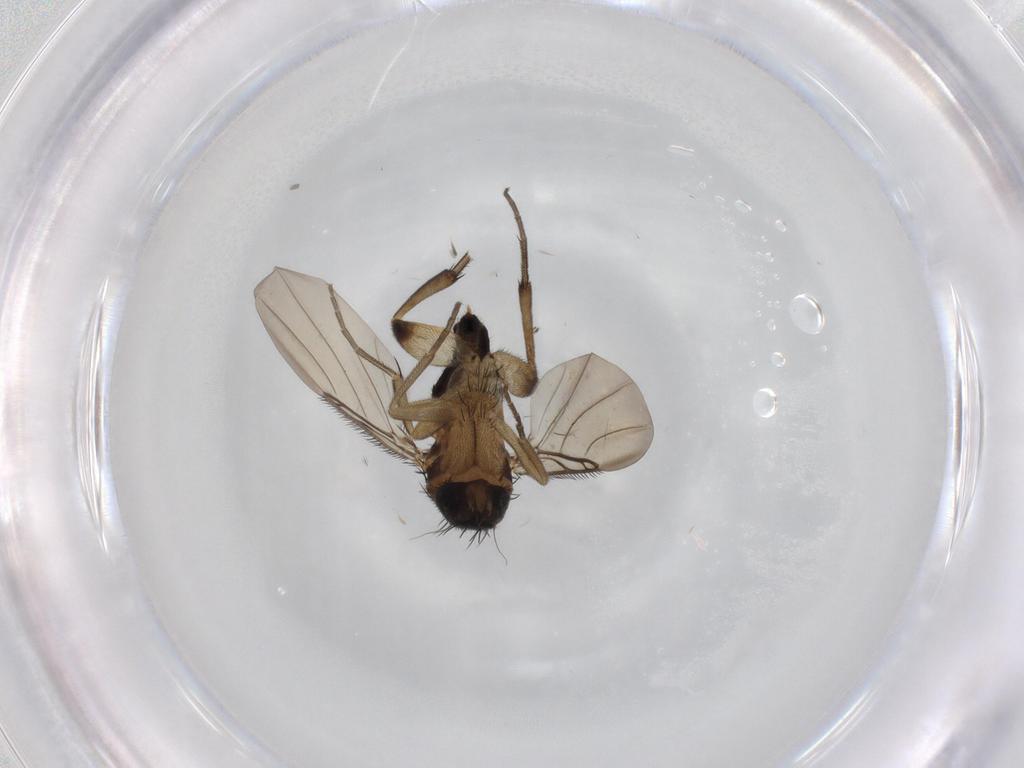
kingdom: Animalia
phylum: Arthropoda
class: Insecta
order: Diptera
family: Phoridae
